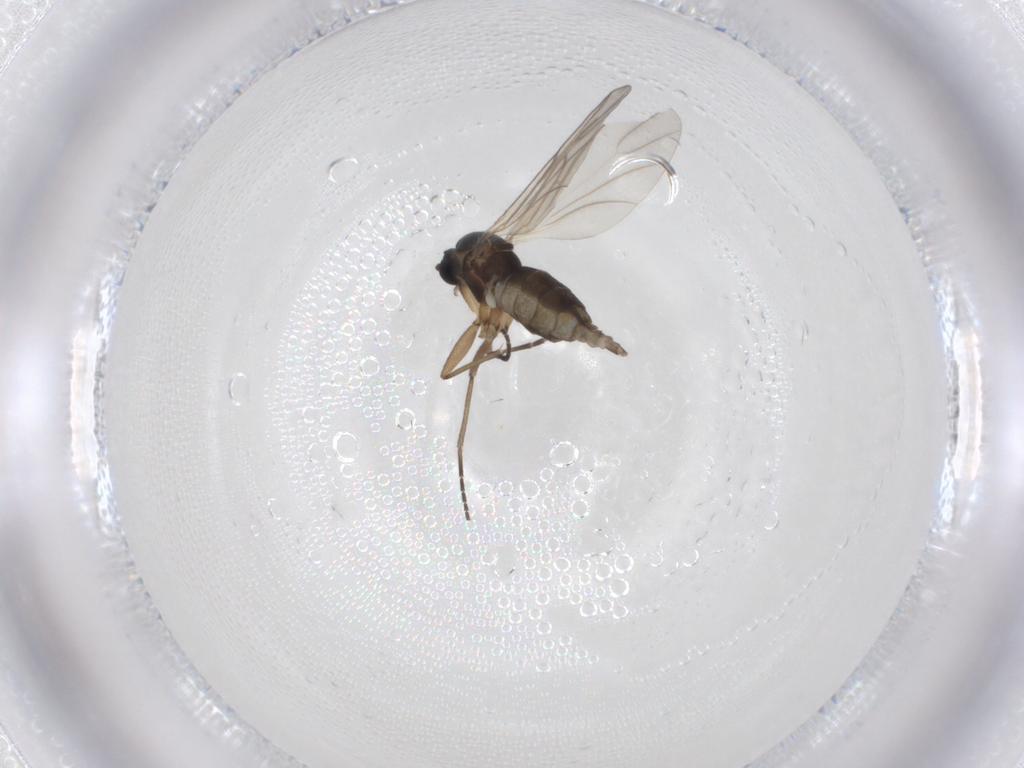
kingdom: Animalia
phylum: Arthropoda
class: Insecta
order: Diptera
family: Chironomidae
